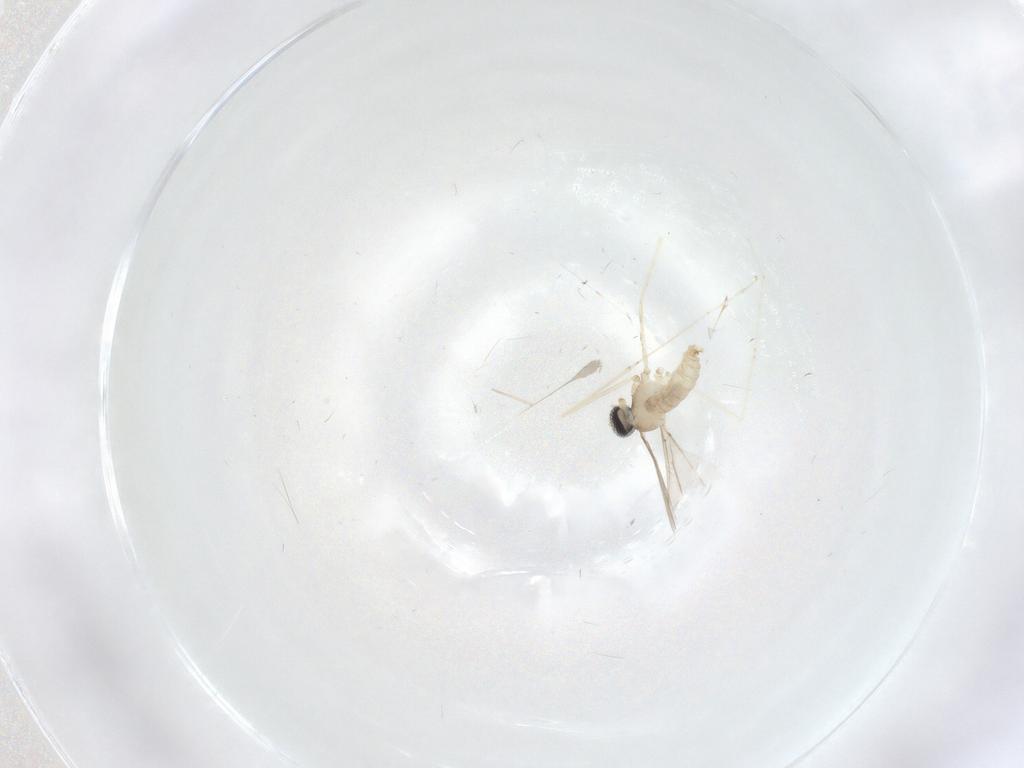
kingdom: Animalia
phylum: Arthropoda
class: Insecta
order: Diptera
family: Cecidomyiidae
